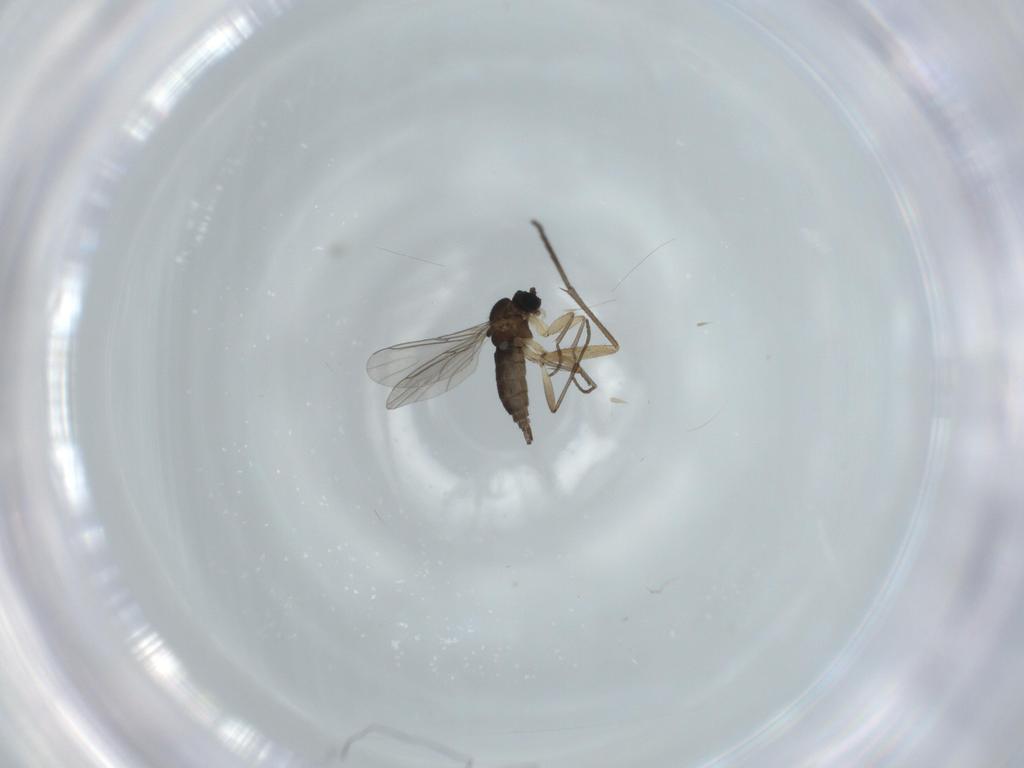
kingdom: Animalia
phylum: Arthropoda
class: Insecta
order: Diptera
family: Sciaridae
